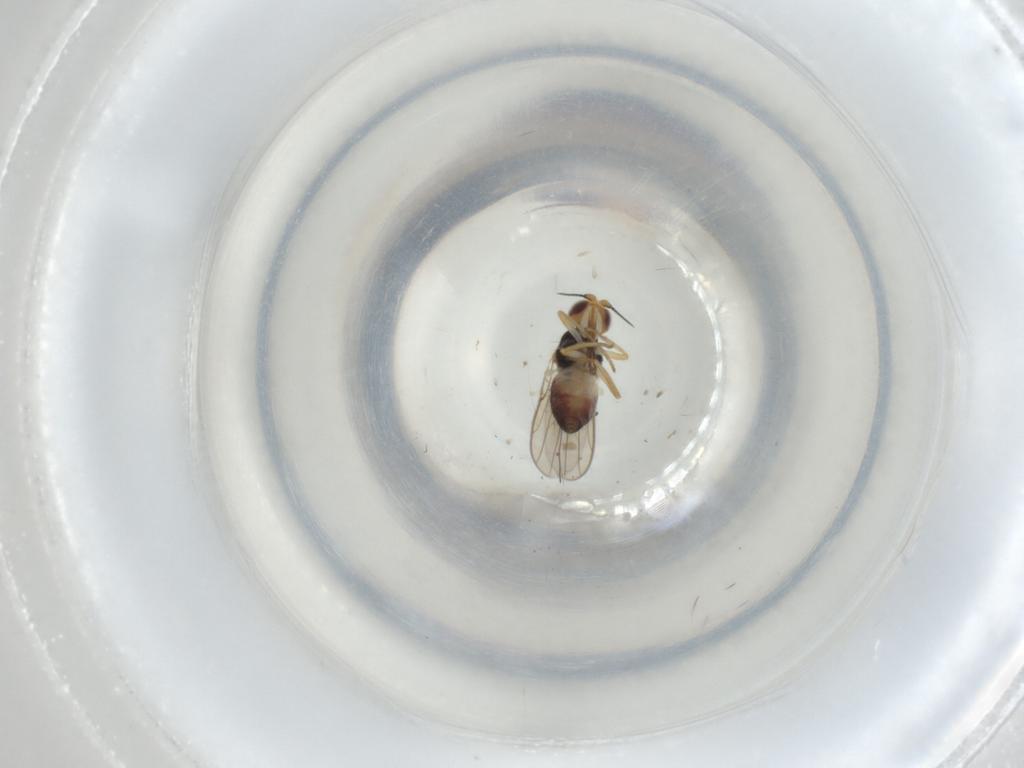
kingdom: Animalia
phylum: Arthropoda
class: Insecta
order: Diptera
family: Chloropidae
